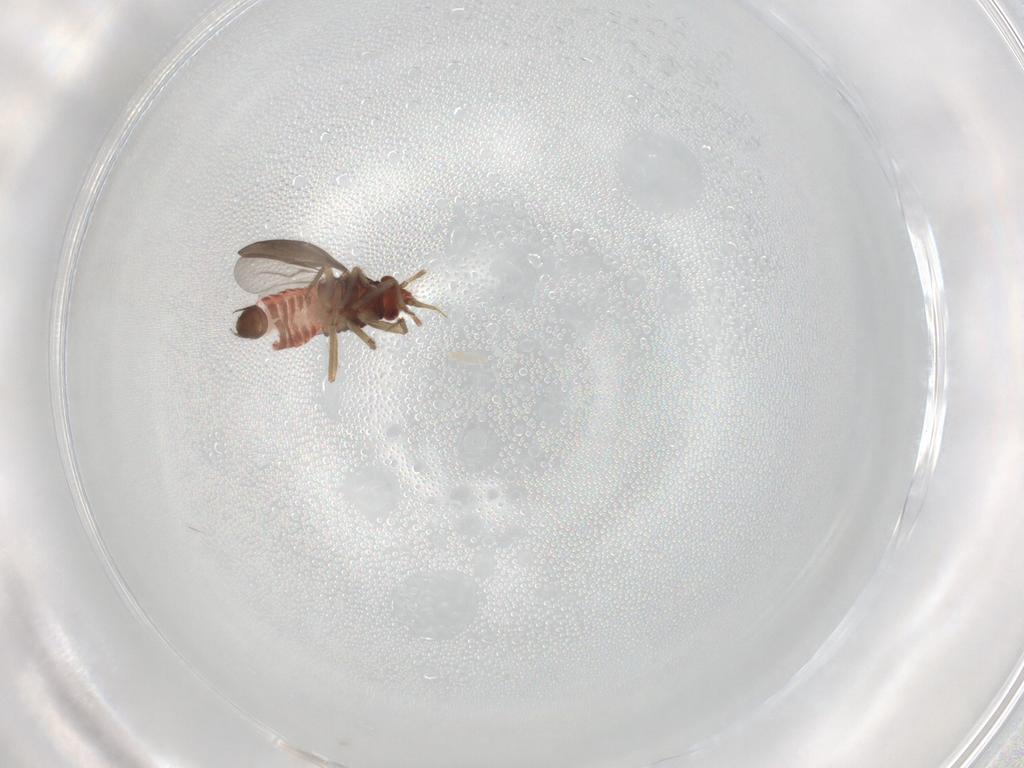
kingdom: Animalia
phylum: Arthropoda
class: Insecta
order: Hemiptera
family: Ceratocombidae
